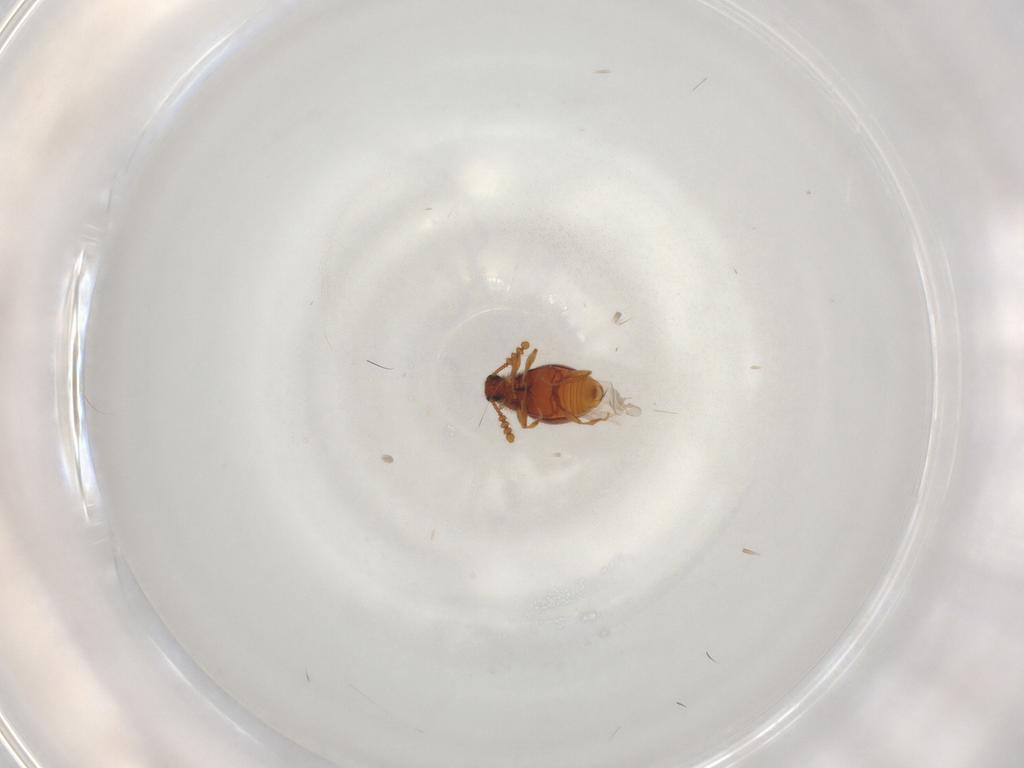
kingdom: Animalia
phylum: Arthropoda
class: Insecta
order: Coleoptera
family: Staphylinidae
